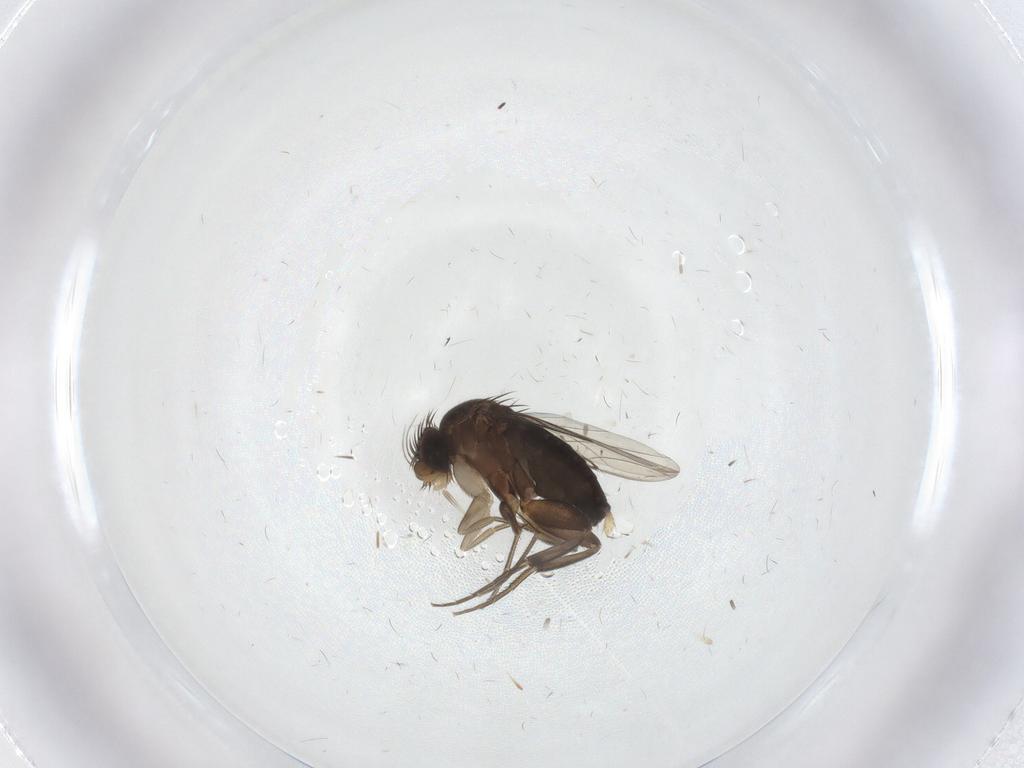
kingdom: Animalia
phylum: Arthropoda
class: Insecta
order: Diptera
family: Phoridae
